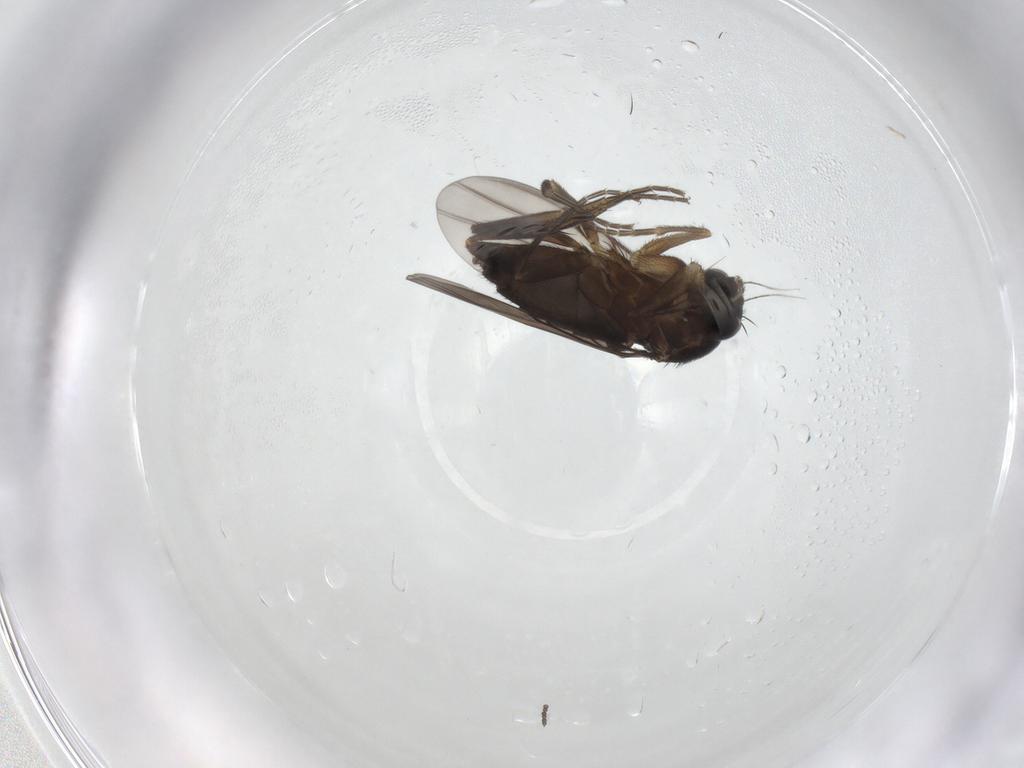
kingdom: Animalia
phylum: Arthropoda
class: Insecta
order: Diptera
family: Phoridae
